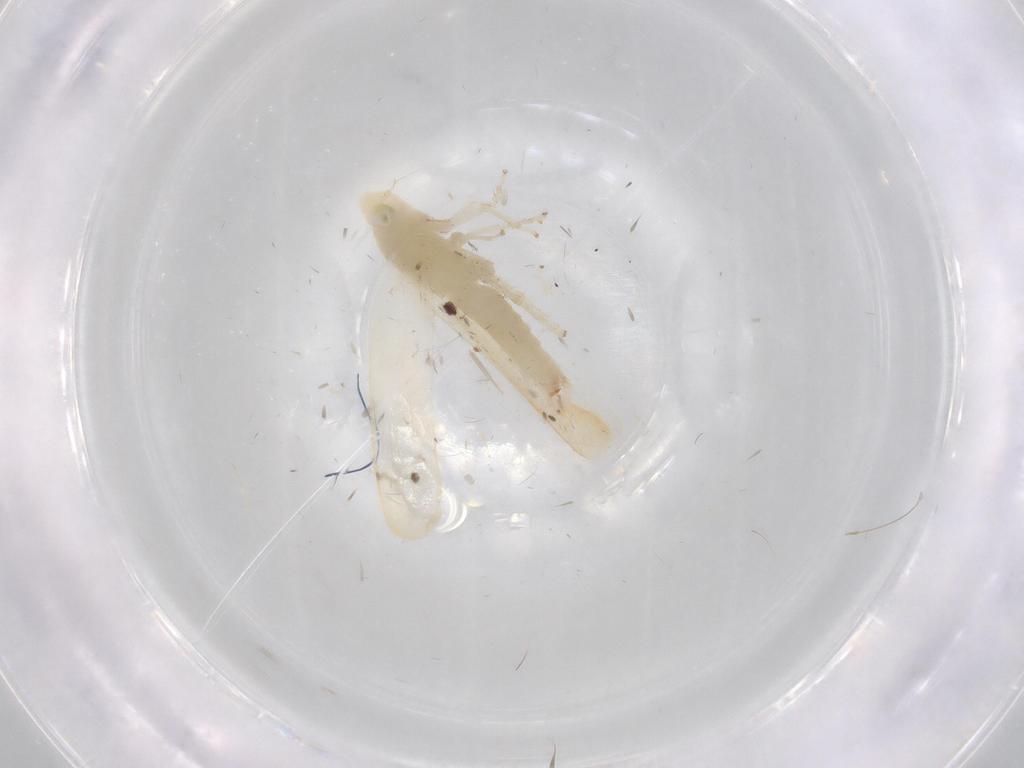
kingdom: Animalia
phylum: Arthropoda
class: Insecta
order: Hemiptera
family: Cicadellidae
